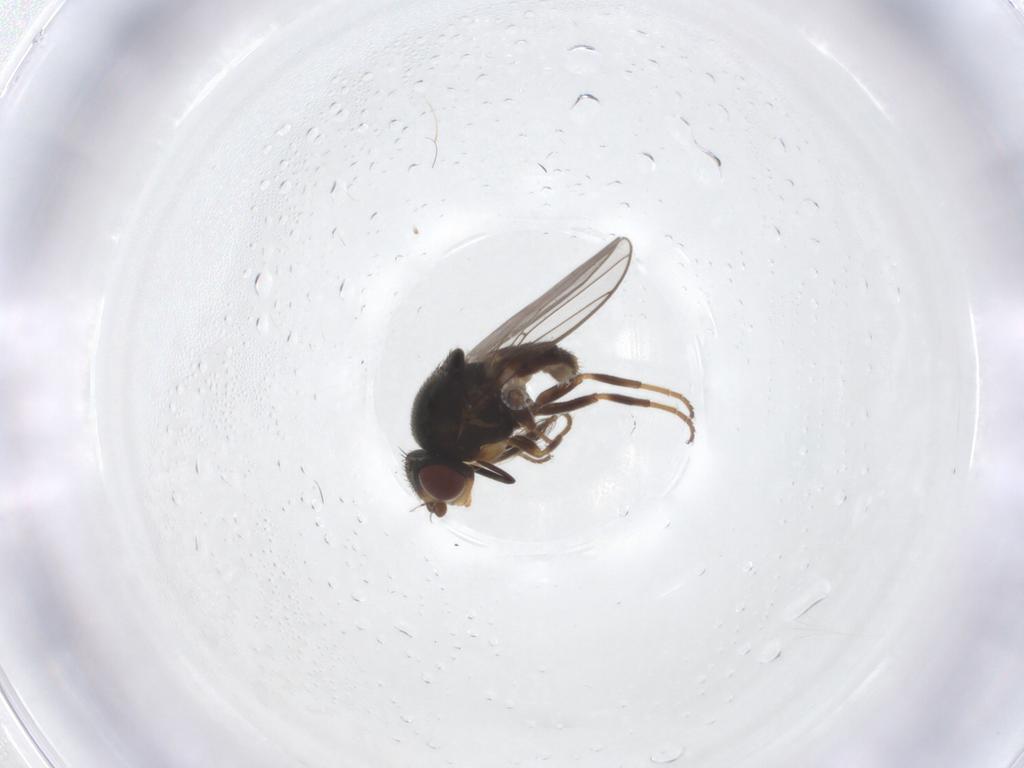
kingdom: Animalia
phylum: Arthropoda
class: Insecta
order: Diptera
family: Chloropidae
